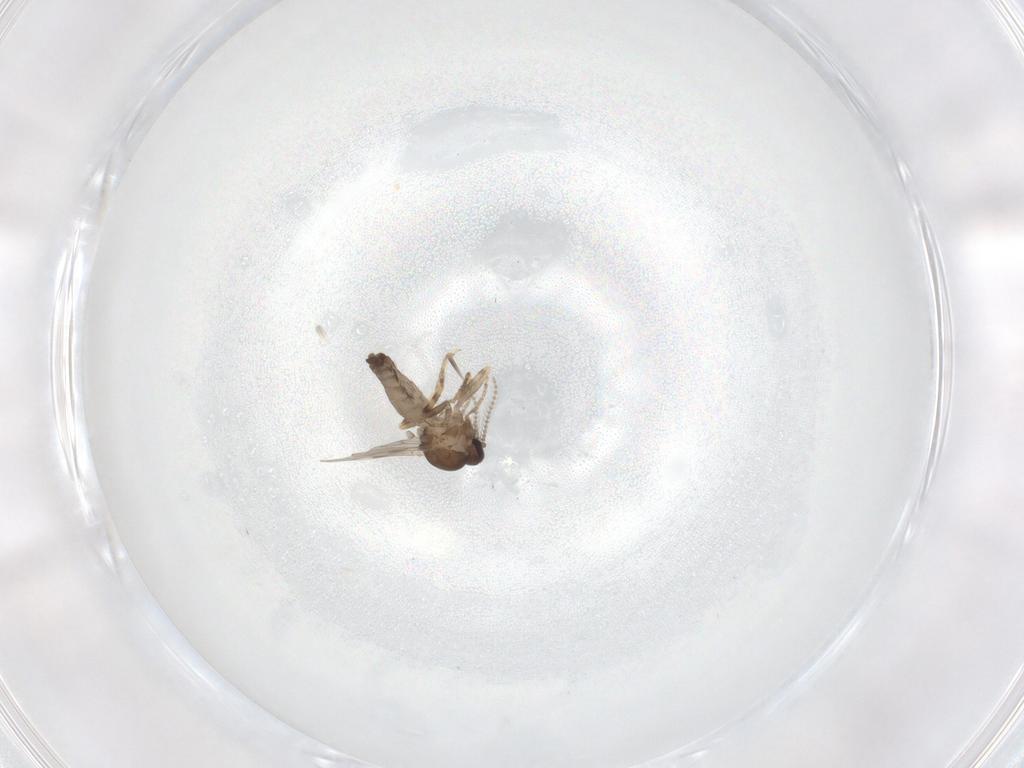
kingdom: Animalia
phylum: Arthropoda
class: Insecta
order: Diptera
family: Ceratopogonidae
